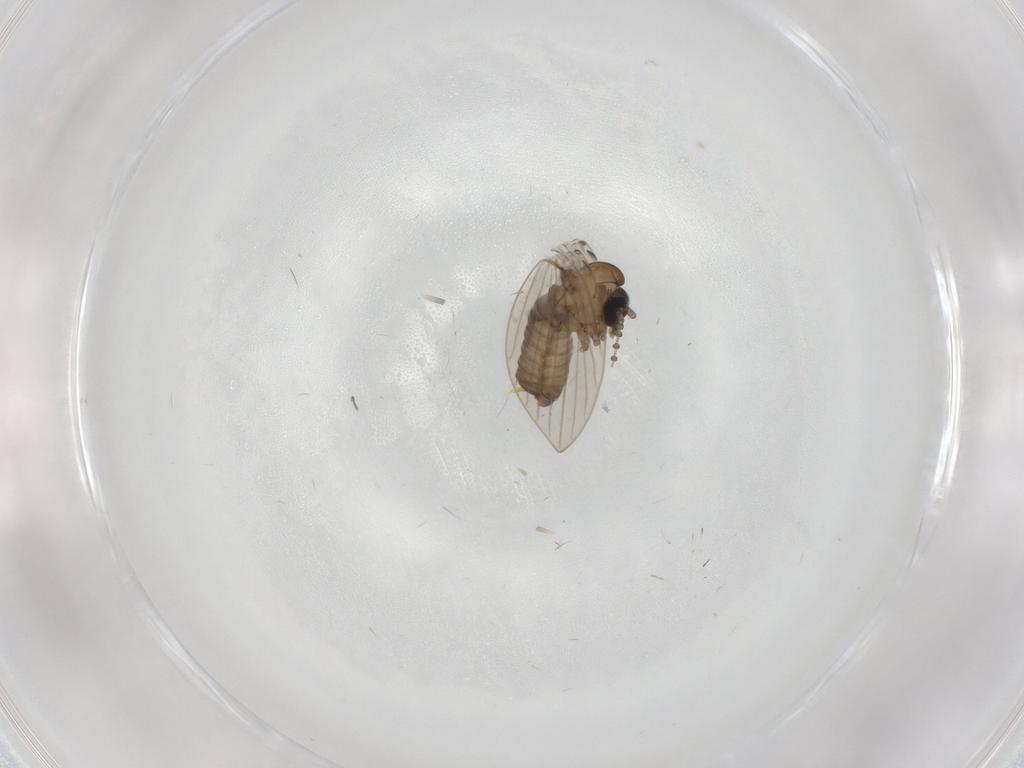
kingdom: Animalia
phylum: Arthropoda
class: Insecta
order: Diptera
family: Psychodidae
